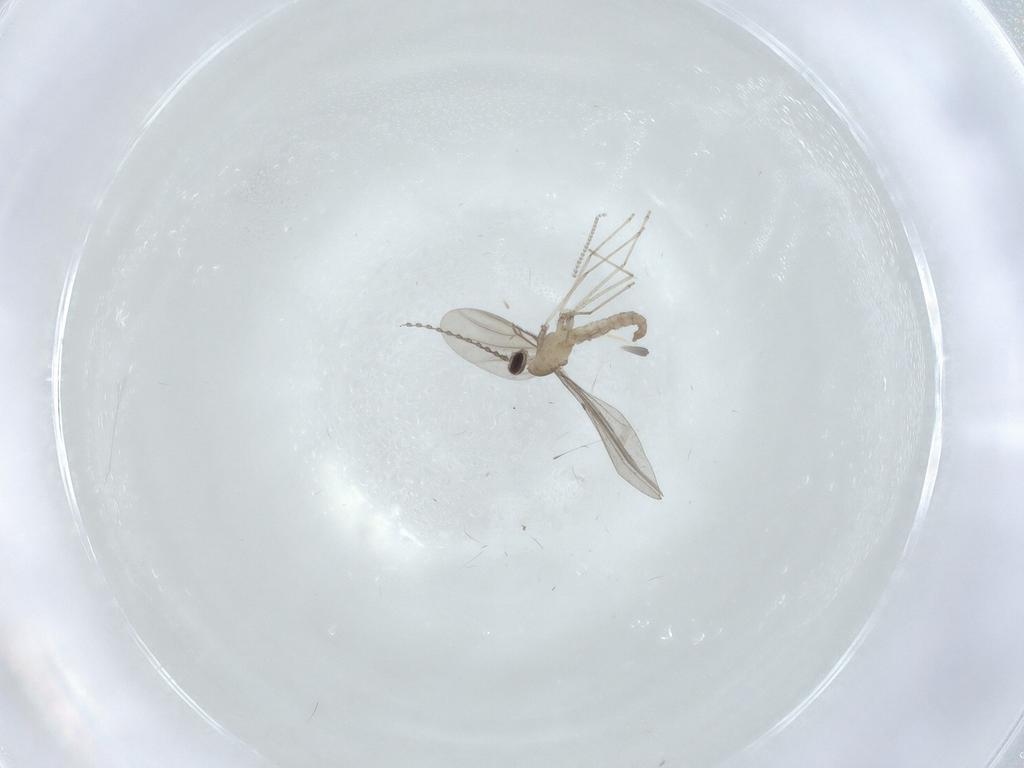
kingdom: Animalia
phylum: Arthropoda
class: Insecta
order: Diptera
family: Cecidomyiidae
